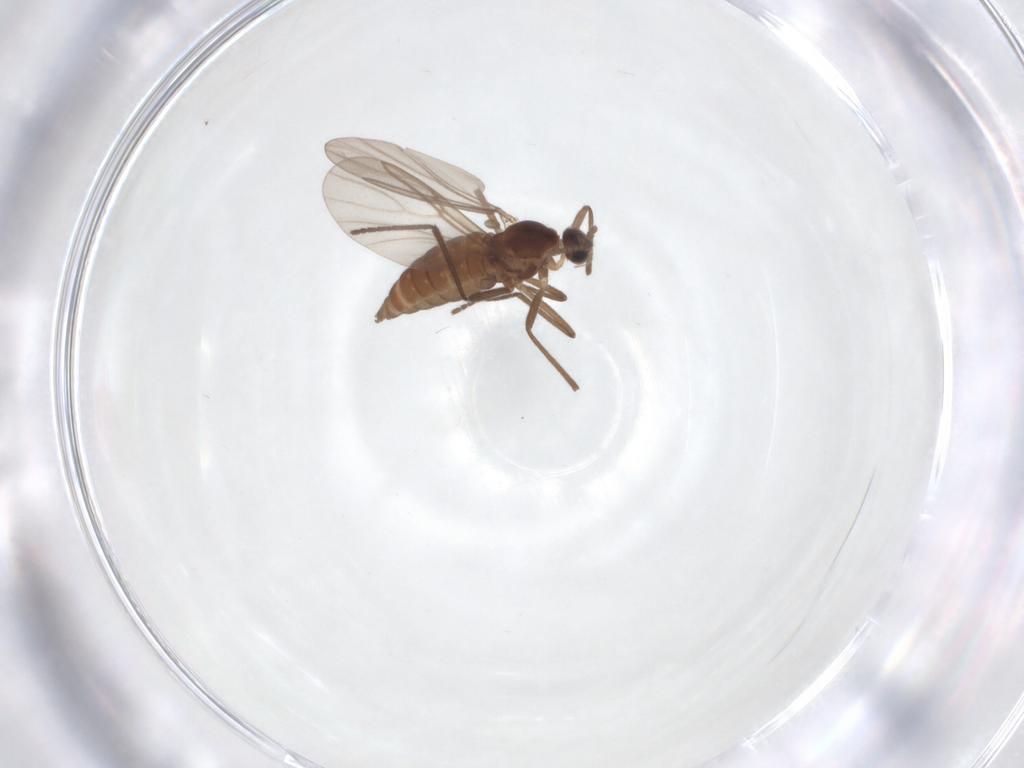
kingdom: Animalia
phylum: Arthropoda
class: Insecta
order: Diptera
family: Cecidomyiidae
